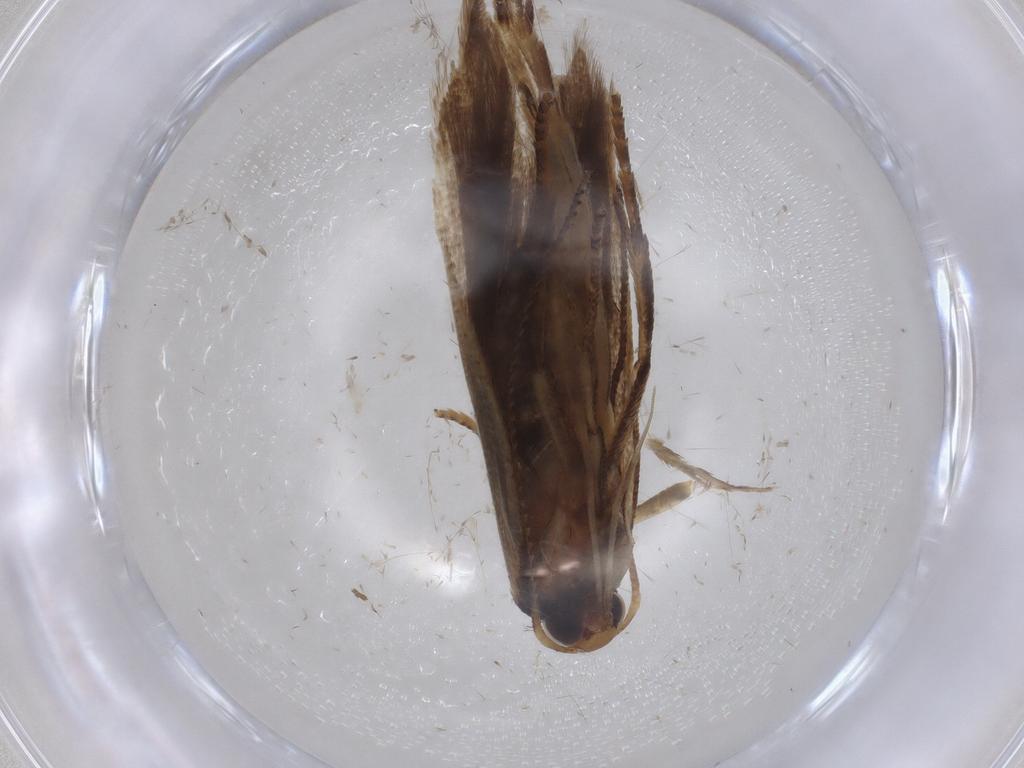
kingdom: Animalia
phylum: Arthropoda
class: Insecta
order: Lepidoptera
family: Gelechiidae
